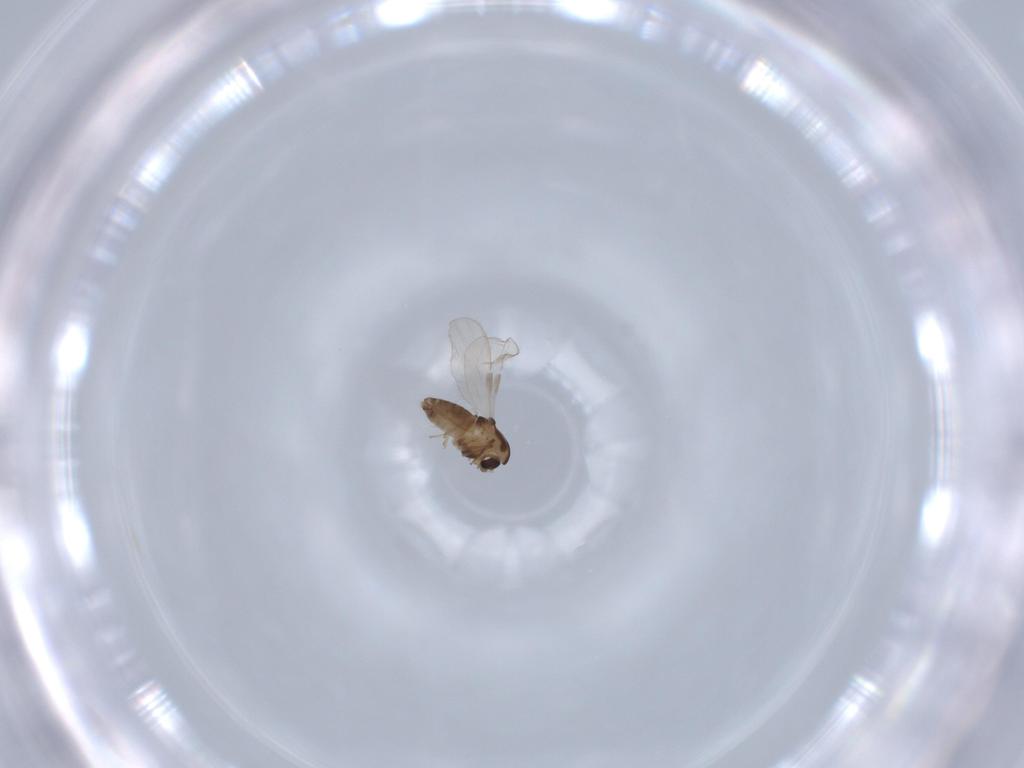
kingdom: Animalia
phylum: Arthropoda
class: Insecta
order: Diptera
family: Chironomidae
